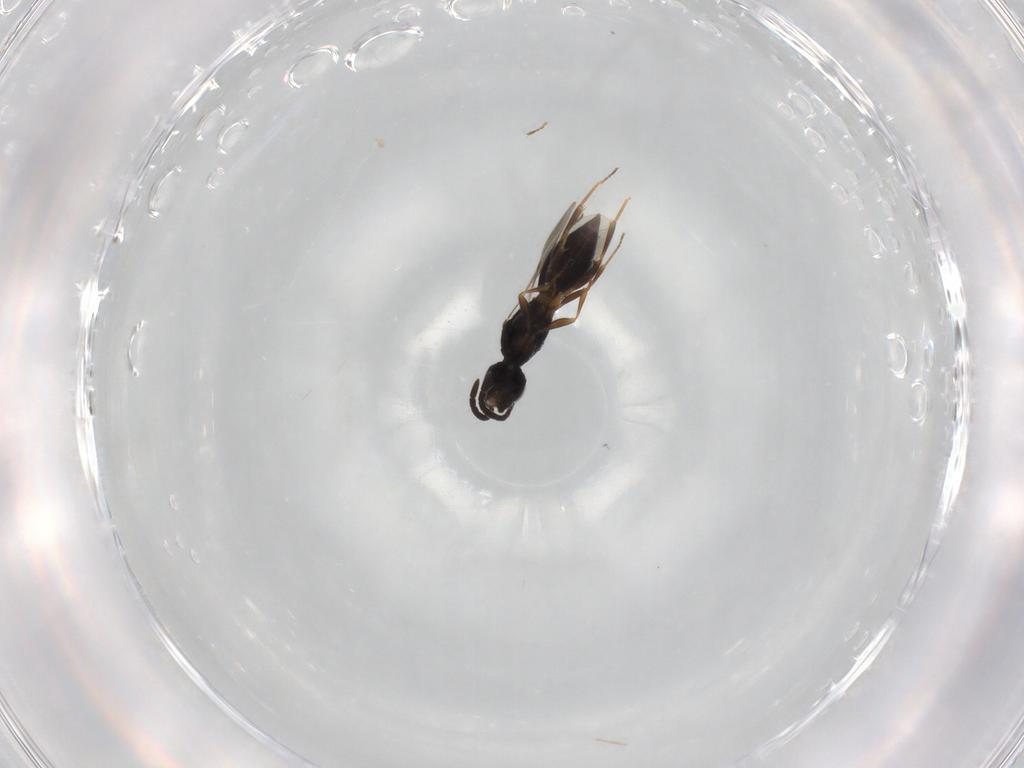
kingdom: Animalia
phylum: Arthropoda
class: Insecta
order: Hymenoptera
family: Megaspilidae
